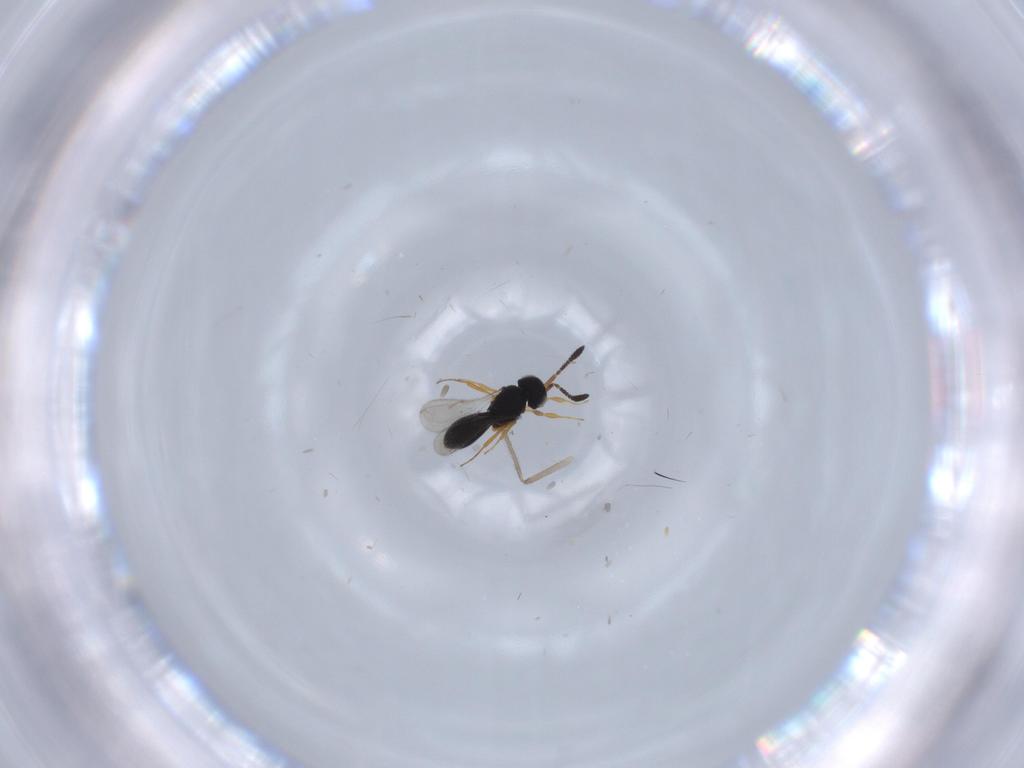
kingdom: Animalia
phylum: Arthropoda
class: Insecta
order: Hymenoptera
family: Scelionidae
